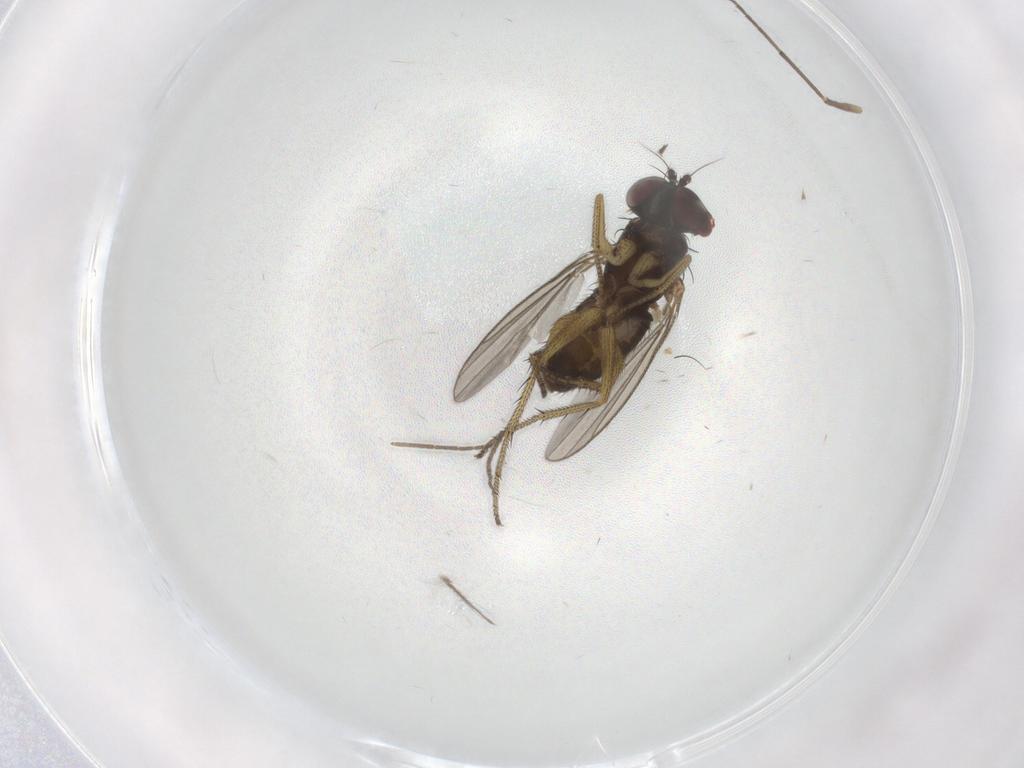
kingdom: Animalia
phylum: Arthropoda
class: Insecta
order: Diptera
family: Dolichopodidae
